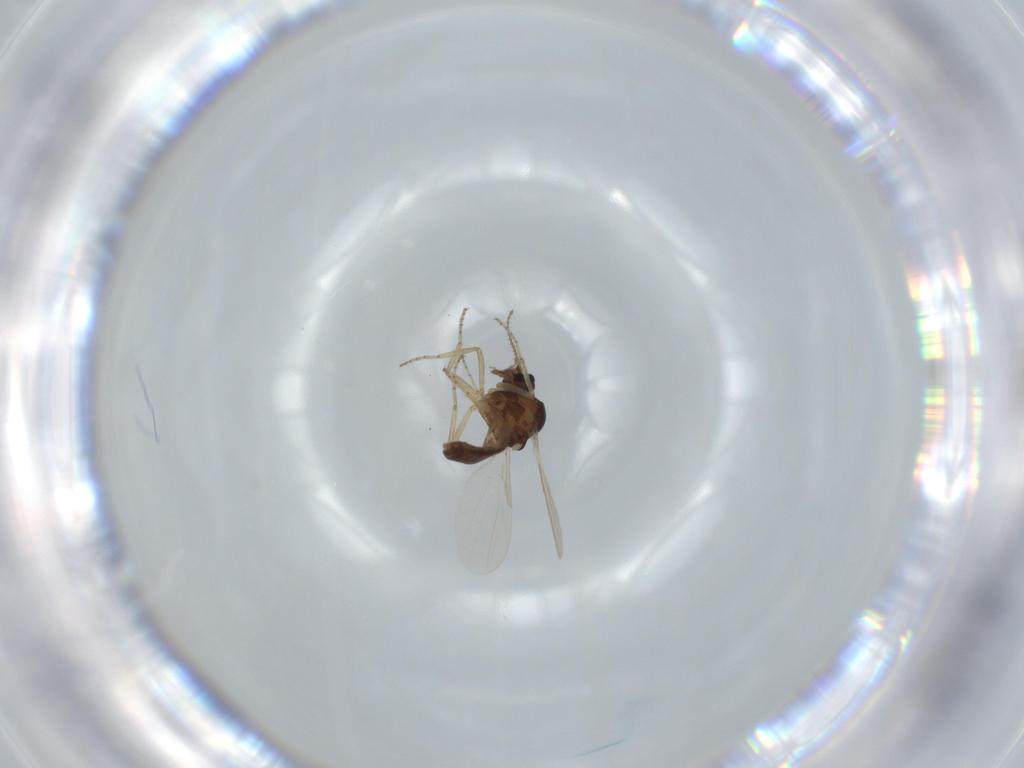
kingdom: Animalia
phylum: Arthropoda
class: Insecta
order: Diptera
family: Ceratopogonidae
